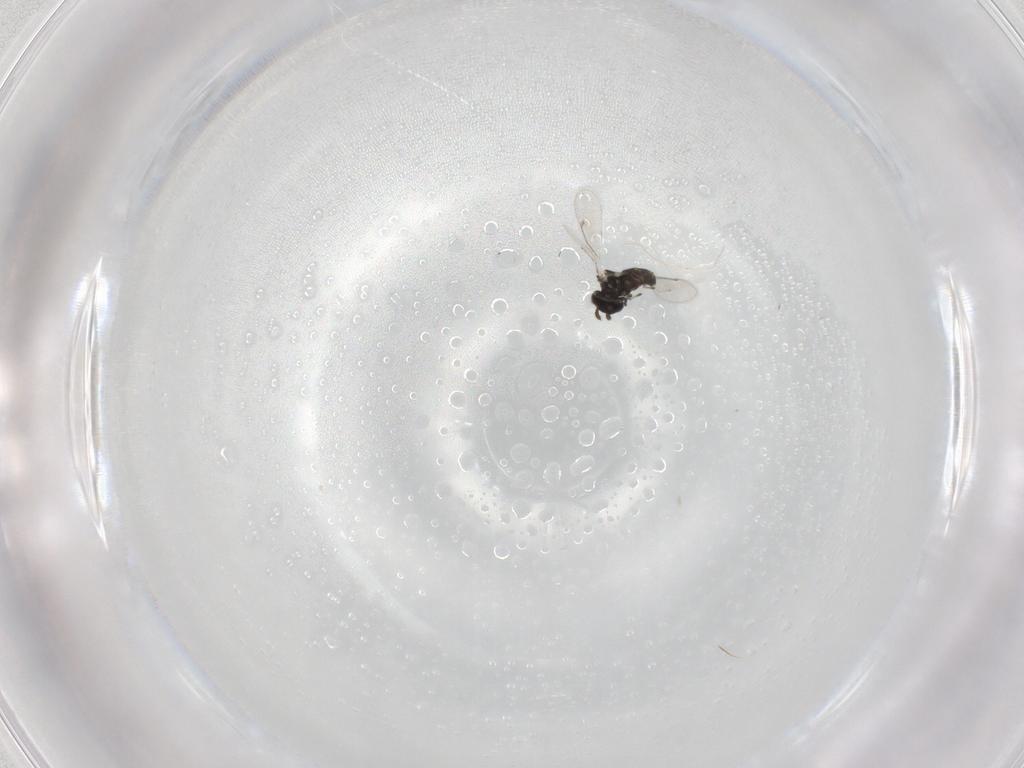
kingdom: Animalia
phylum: Arthropoda
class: Insecta
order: Hymenoptera
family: Eulophidae
